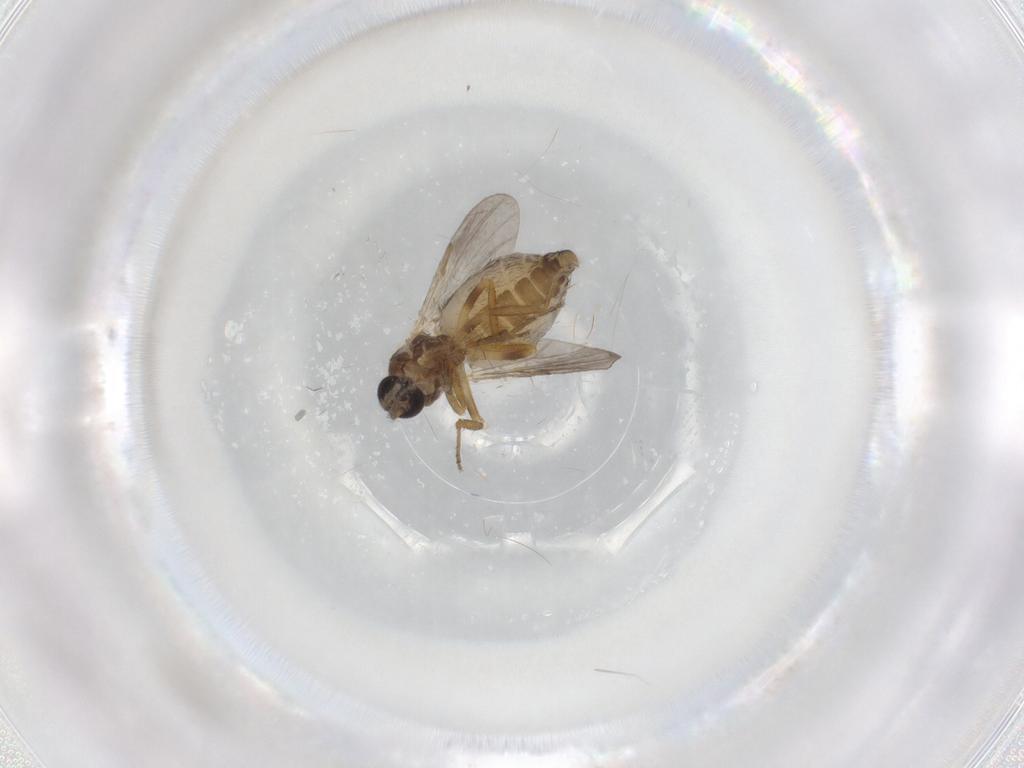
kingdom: Animalia
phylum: Arthropoda
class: Insecta
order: Diptera
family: Ceratopogonidae
